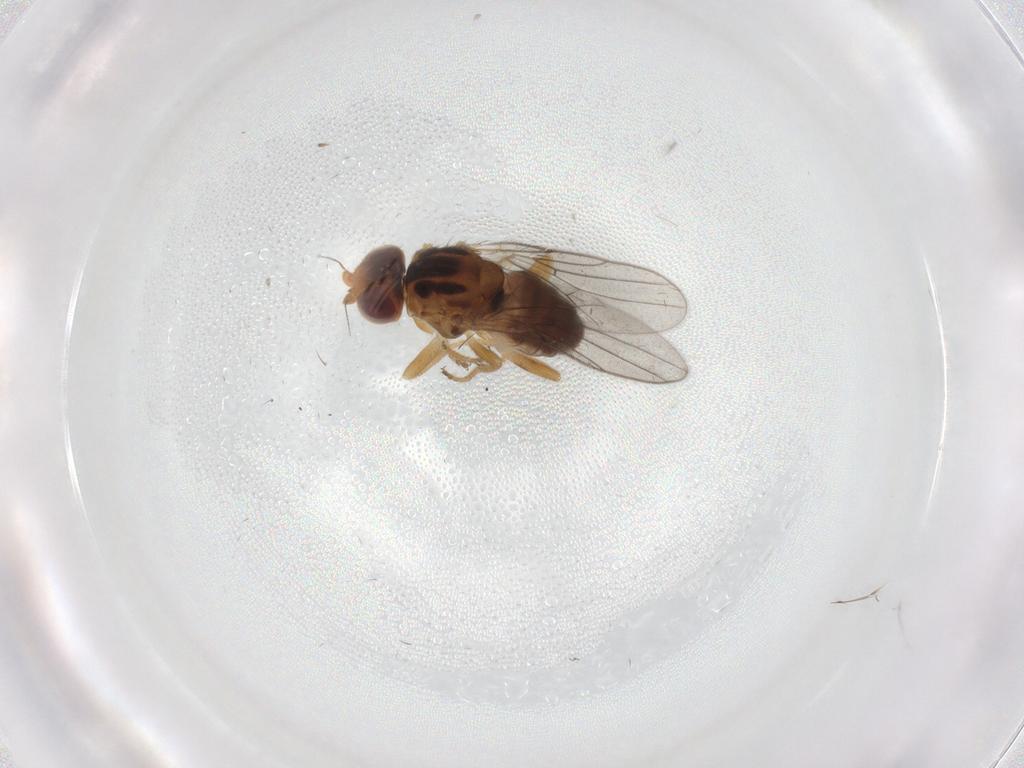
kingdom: Animalia
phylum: Arthropoda
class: Insecta
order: Diptera
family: Chloropidae
